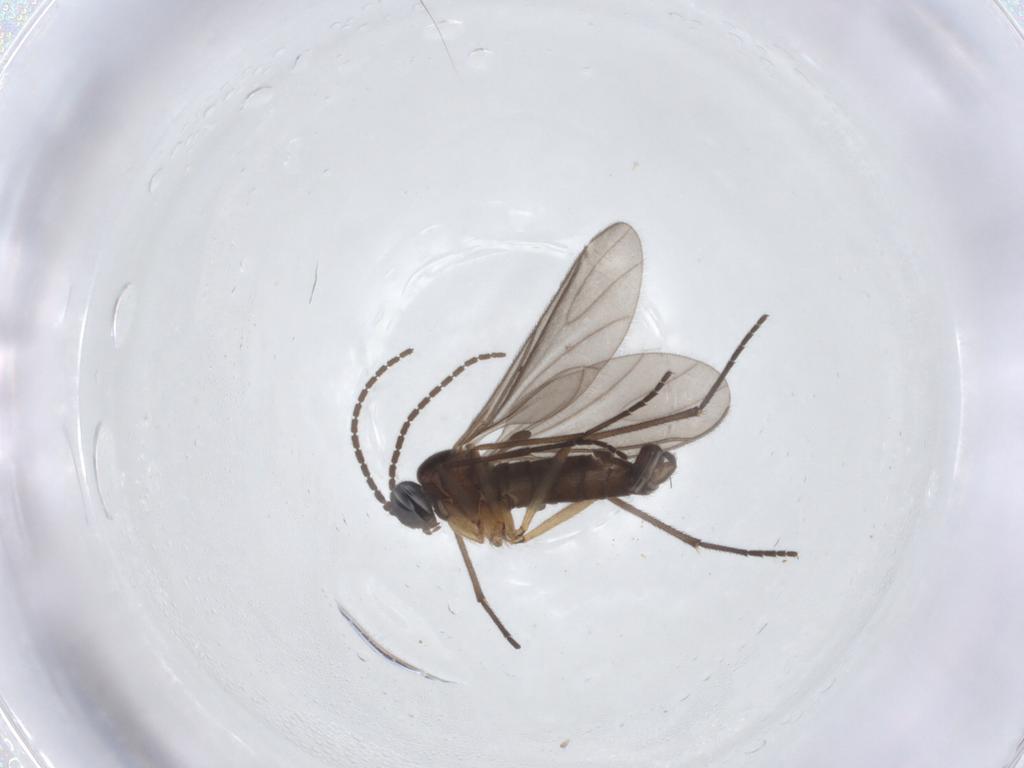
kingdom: Animalia
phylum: Arthropoda
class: Insecta
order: Diptera
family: Sciaridae
